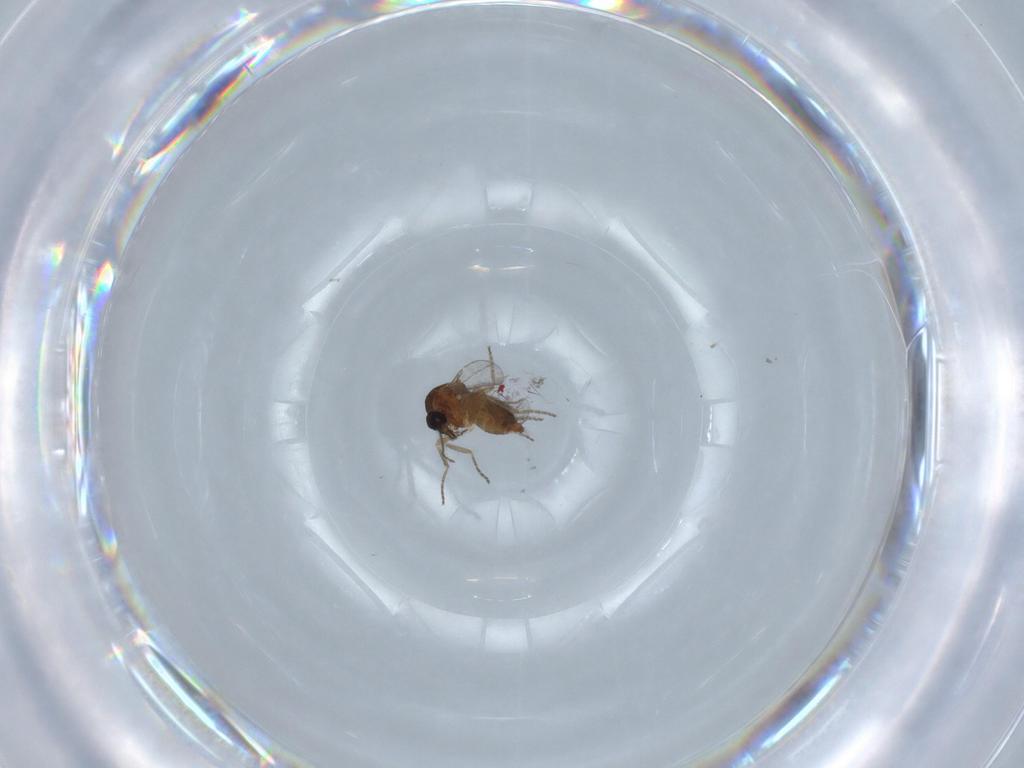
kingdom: Animalia
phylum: Arthropoda
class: Insecta
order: Diptera
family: Ceratopogonidae
